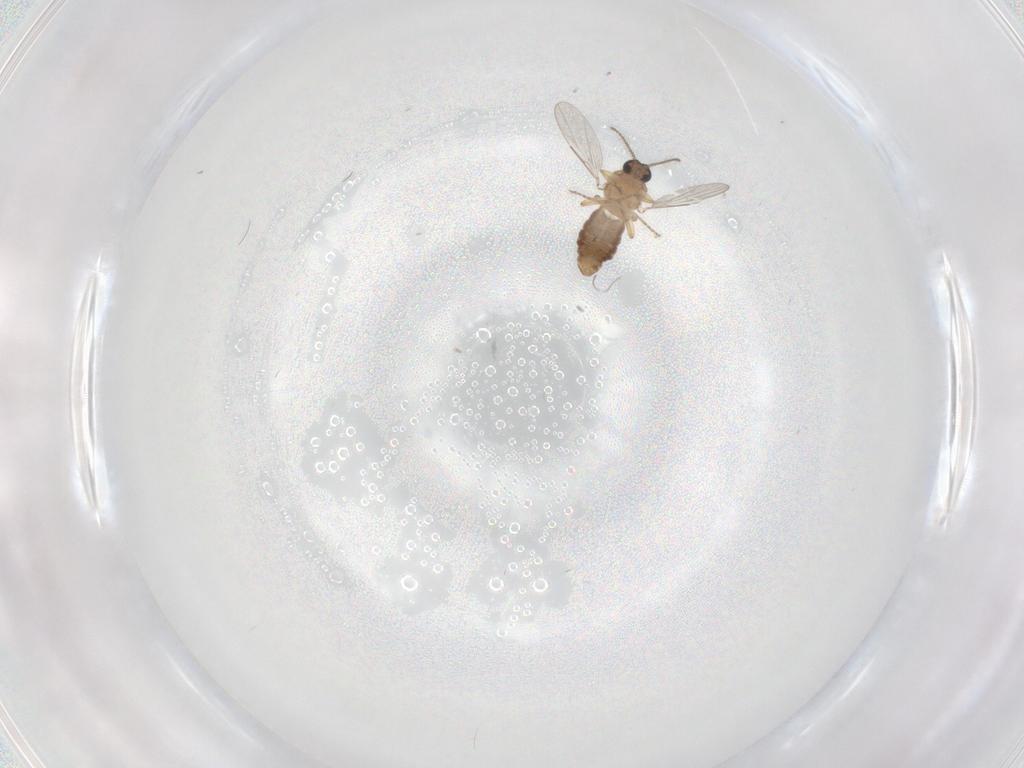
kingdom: Animalia
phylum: Arthropoda
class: Insecta
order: Diptera
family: Ceratopogonidae
